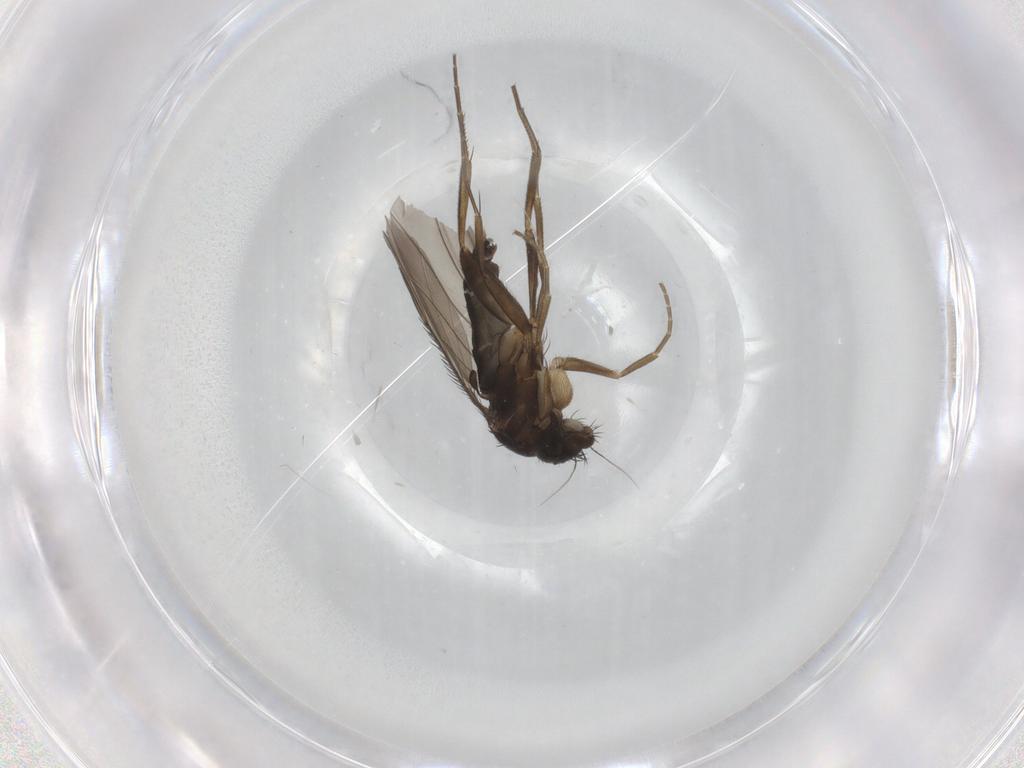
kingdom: Animalia
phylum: Arthropoda
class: Insecta
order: Diptera
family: Phoridae
